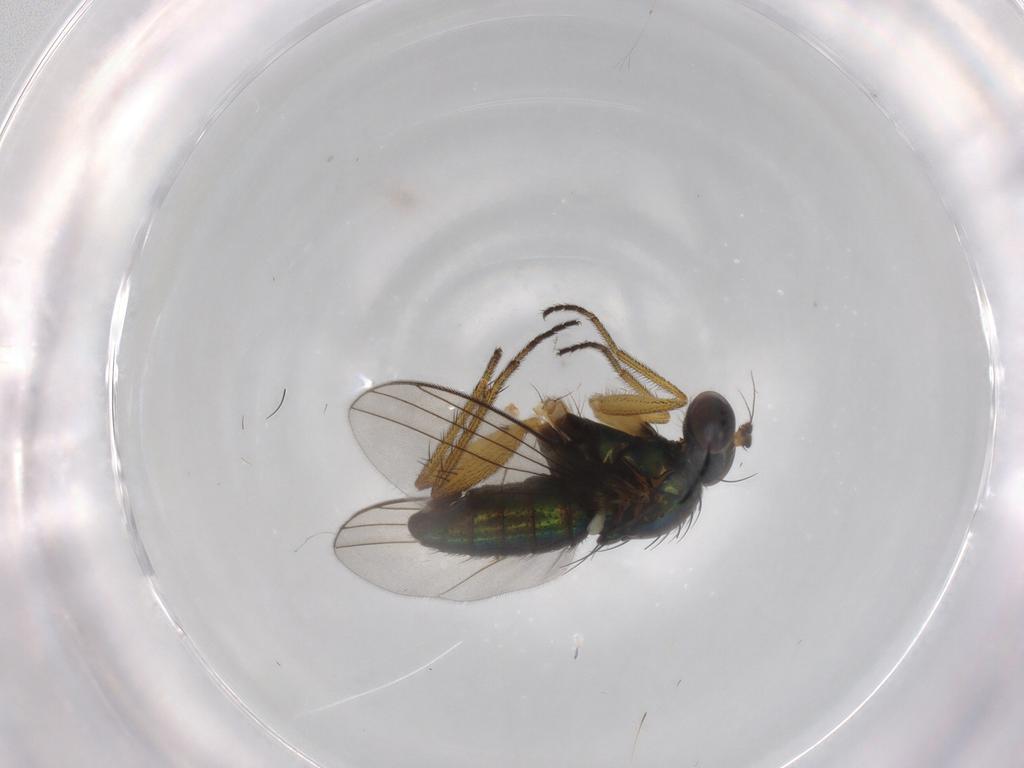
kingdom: Animalia
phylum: Arthropoda
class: Insecta
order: Diptera
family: Dolichopodidae
